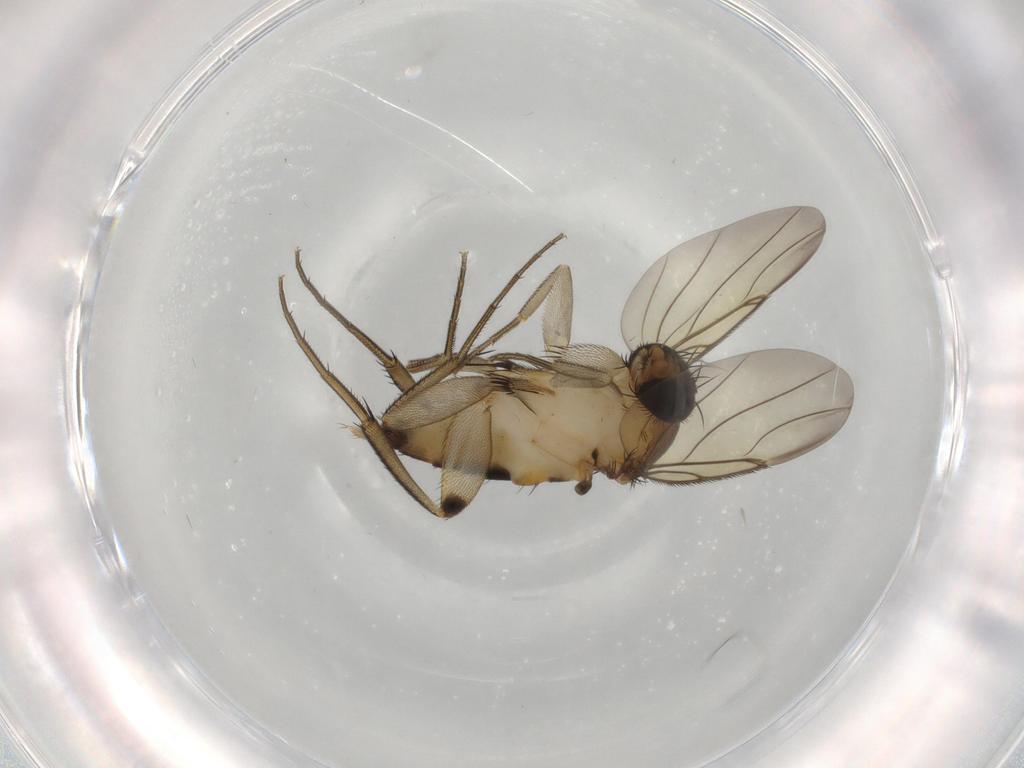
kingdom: Animalia
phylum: Arthropoda
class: Insecta
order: Diptera
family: Phoridae
